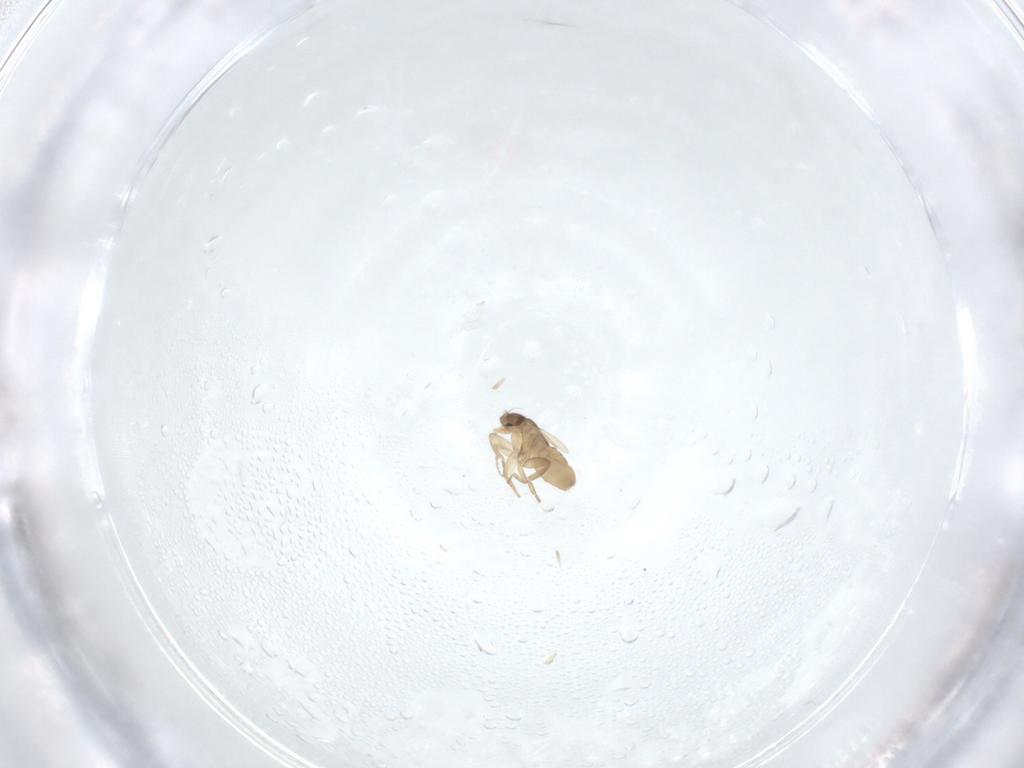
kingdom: Animalia
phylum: Arthropoda
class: Insecta
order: Diptera
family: Phoridae
